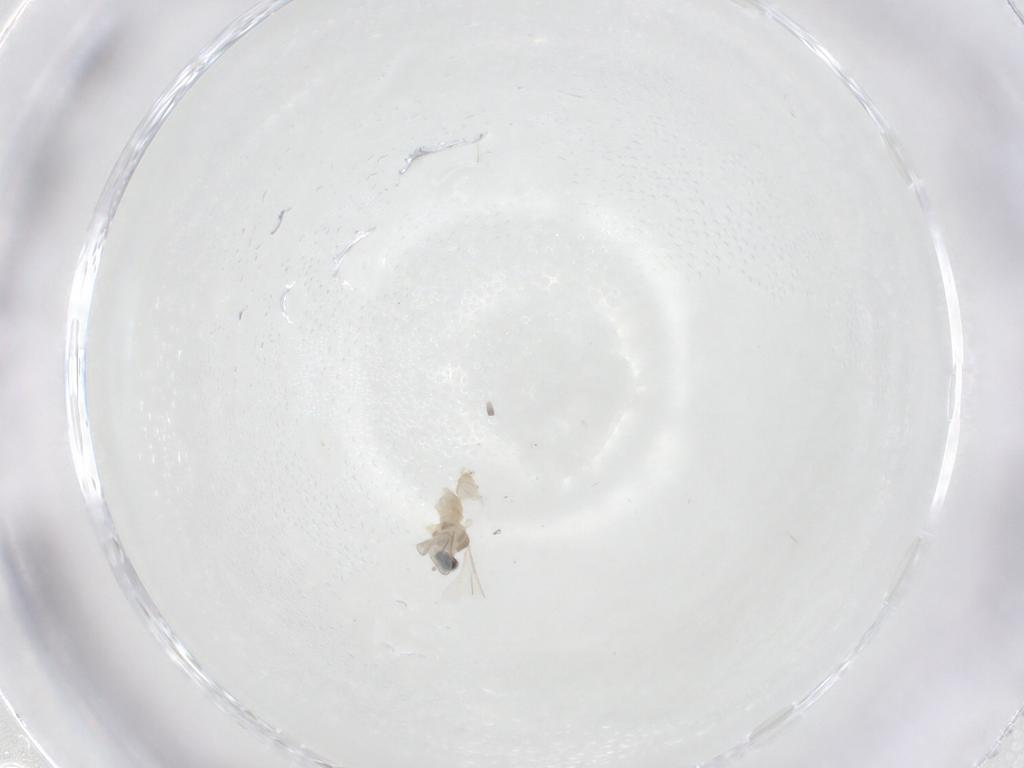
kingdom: Animalia
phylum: Arthropoda
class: Insecta
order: Diptera
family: Cecidomyiidae
